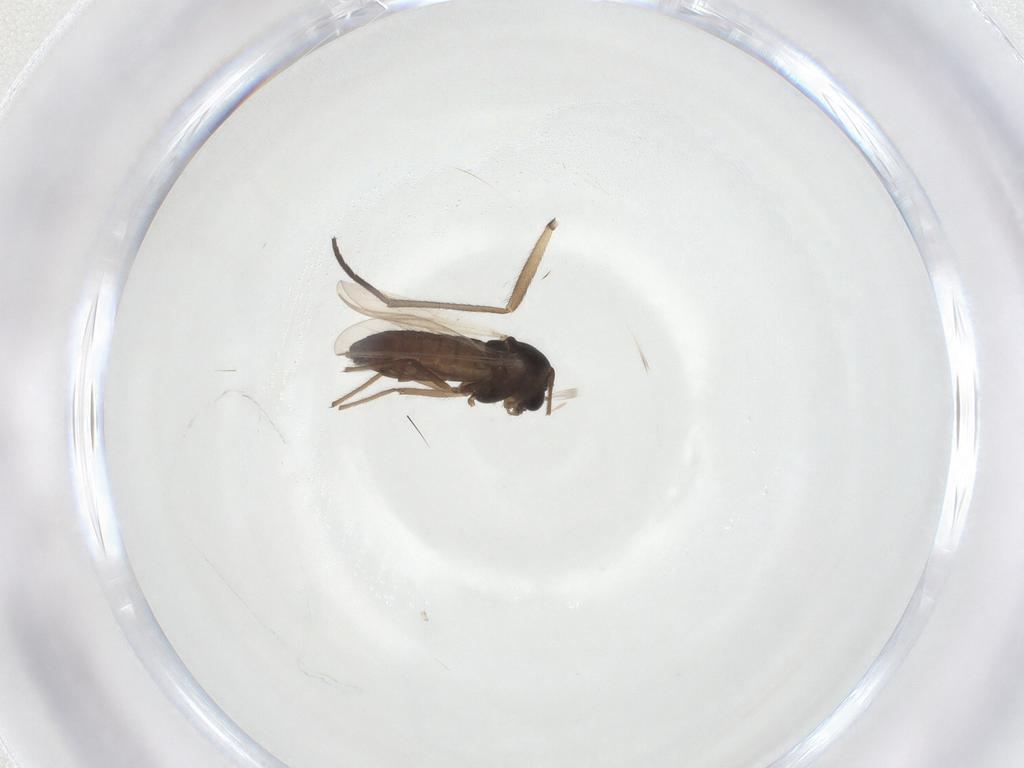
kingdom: Animalia
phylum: Arthropoda
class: Insecta
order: Diptera
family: Sciaridae
